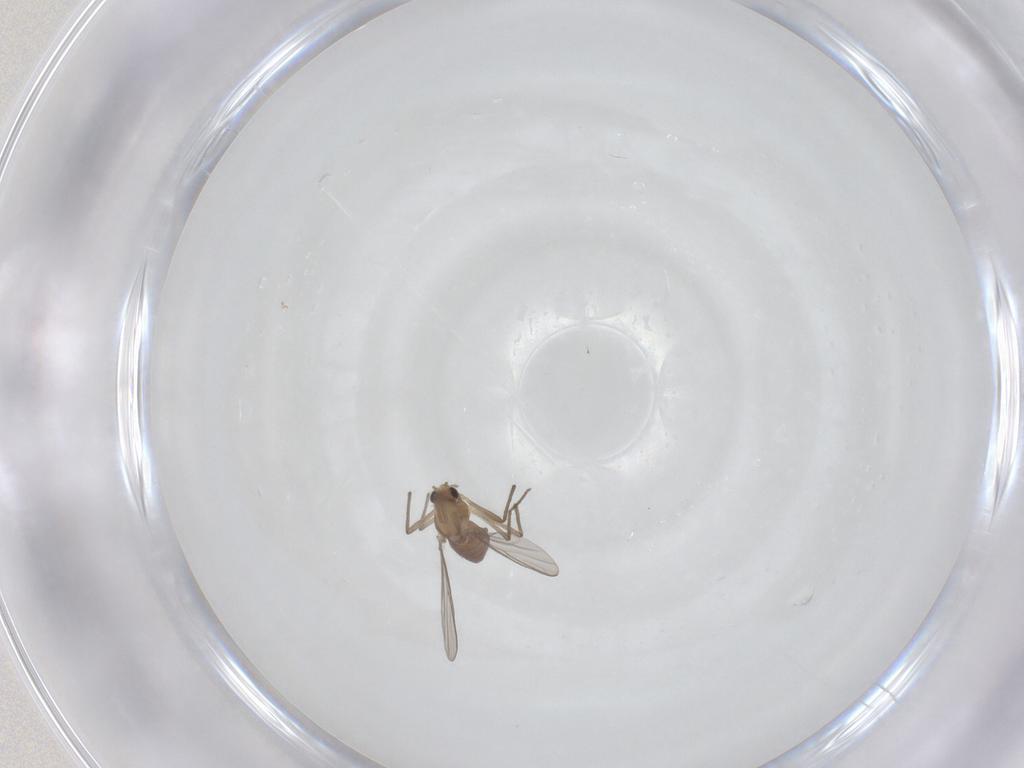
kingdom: Animalia
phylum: Arthropoda
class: Insecta
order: Diptera
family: Chironomidae
